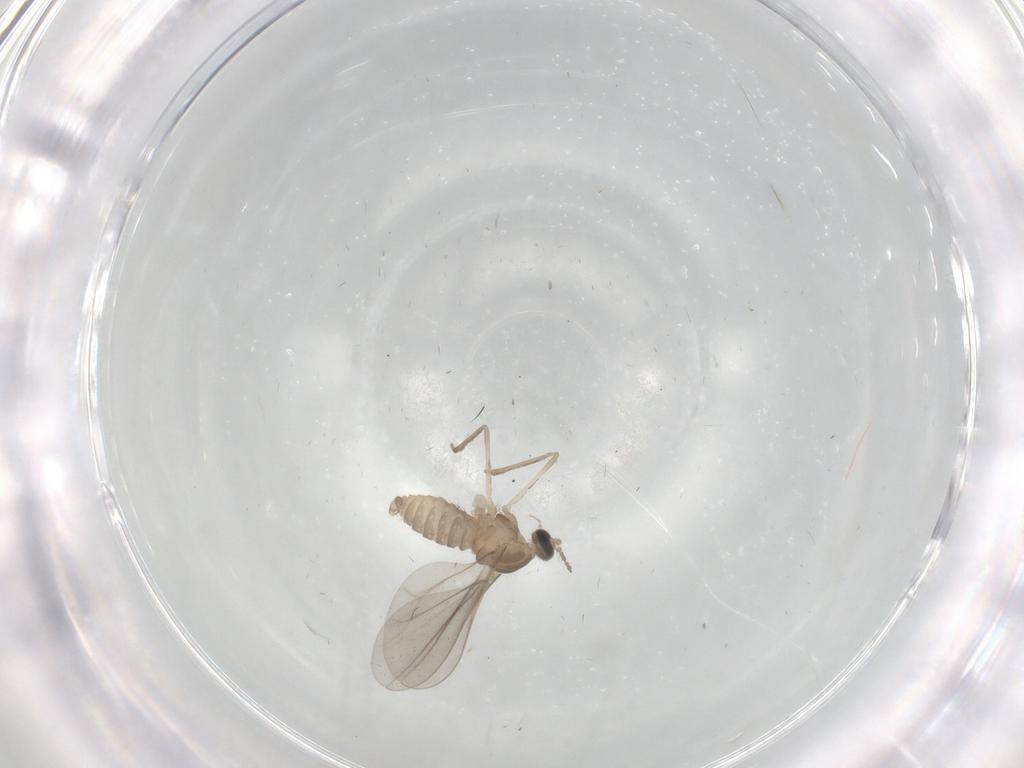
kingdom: Animalia
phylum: Arthropoda
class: Insecta
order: Diptera
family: Cecidomyiidae
